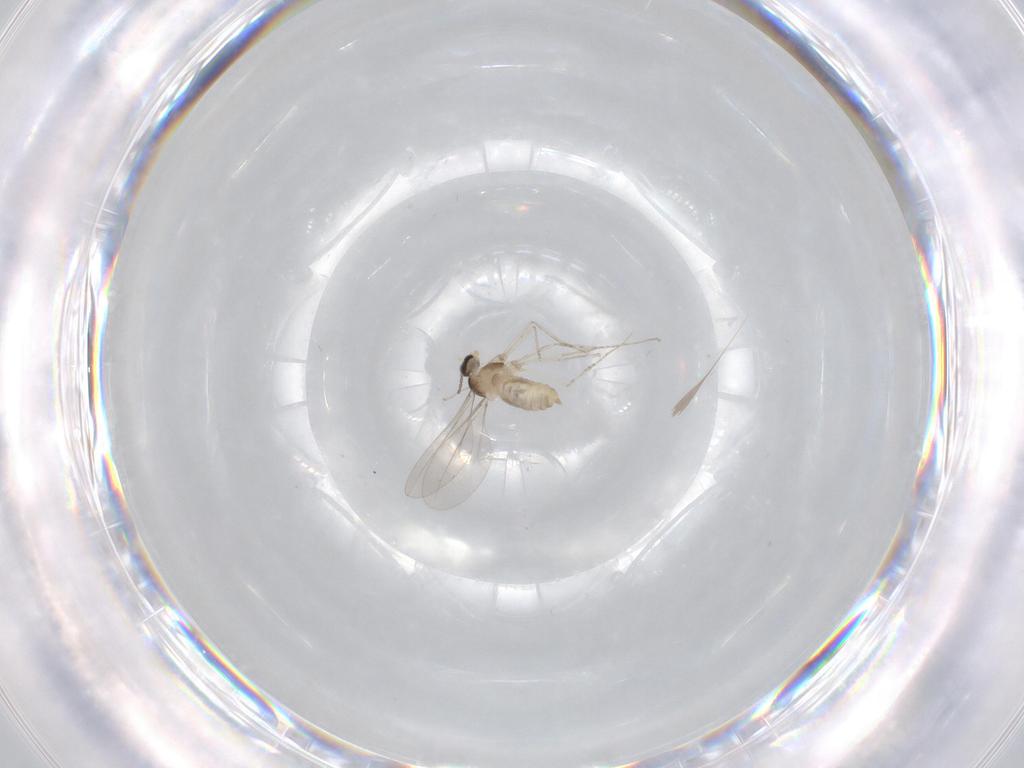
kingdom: Animalia
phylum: Arthropoda
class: Insecta
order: Diptera
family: Cecidomyiidae
